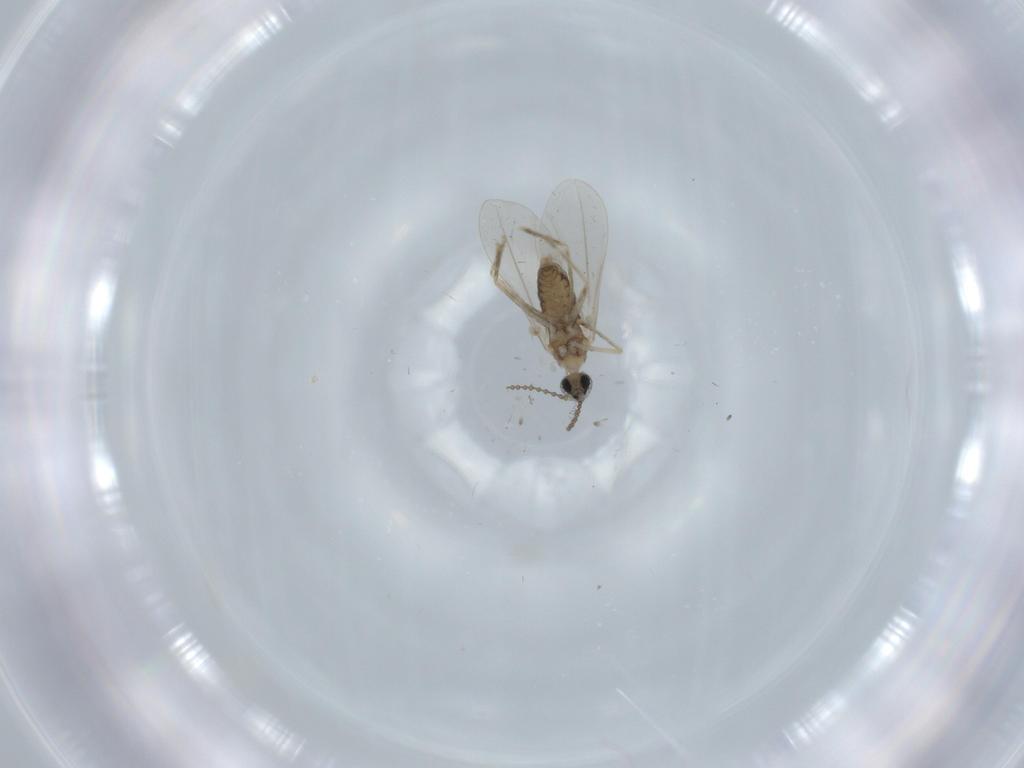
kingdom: Animalia
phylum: Arthropoda
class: Insecta
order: Diptera
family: Cecidomyiidae
